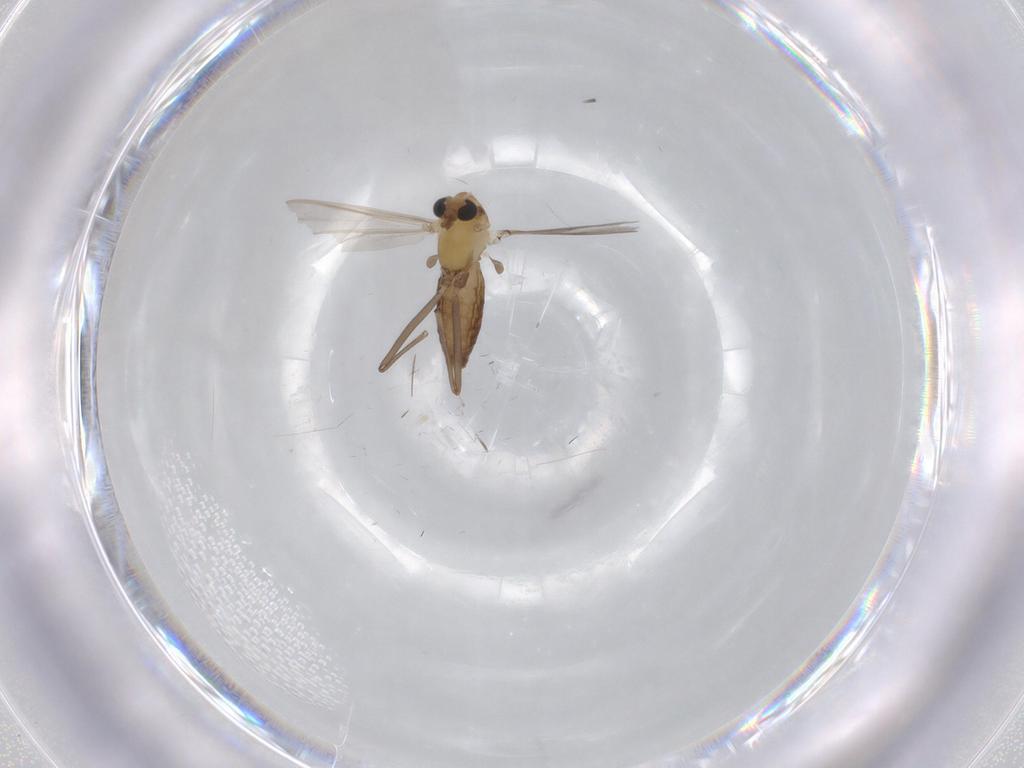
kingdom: Animalia
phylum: Arthropoda
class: Insecta
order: Diptera
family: Chironomidae
